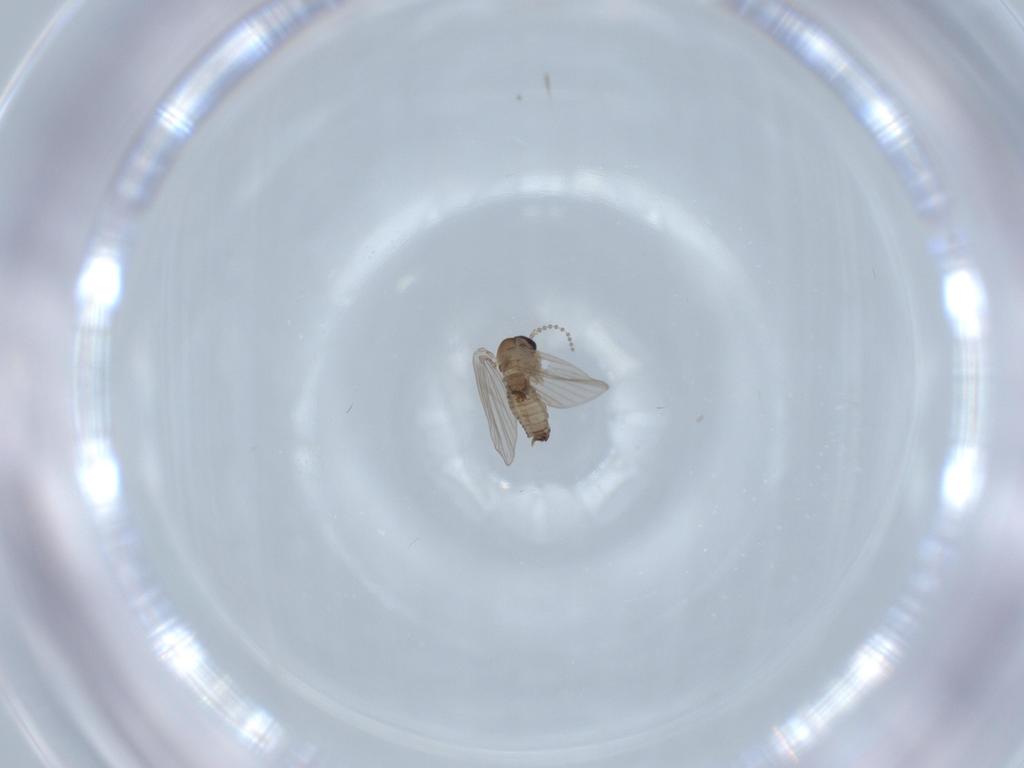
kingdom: Animalia
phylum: Arthropoda
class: Insecta
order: Diptera
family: Psychodidae
